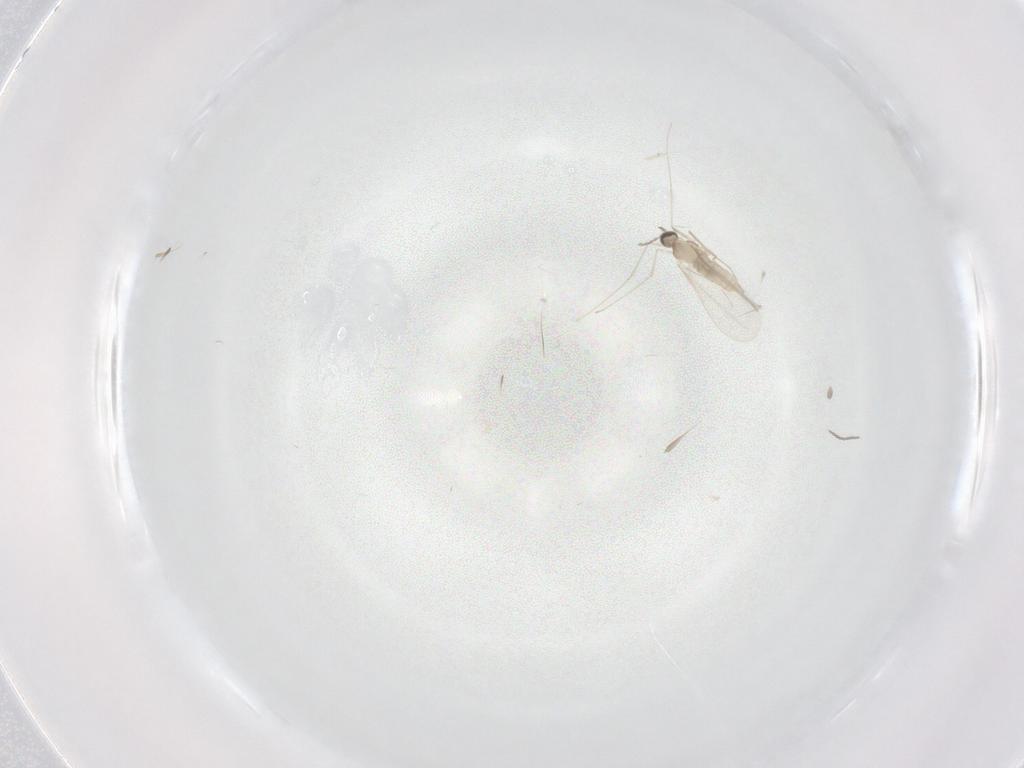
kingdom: Animalia
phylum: Arthropoda
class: Insecta
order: Diptera
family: Cecidomyiidae
